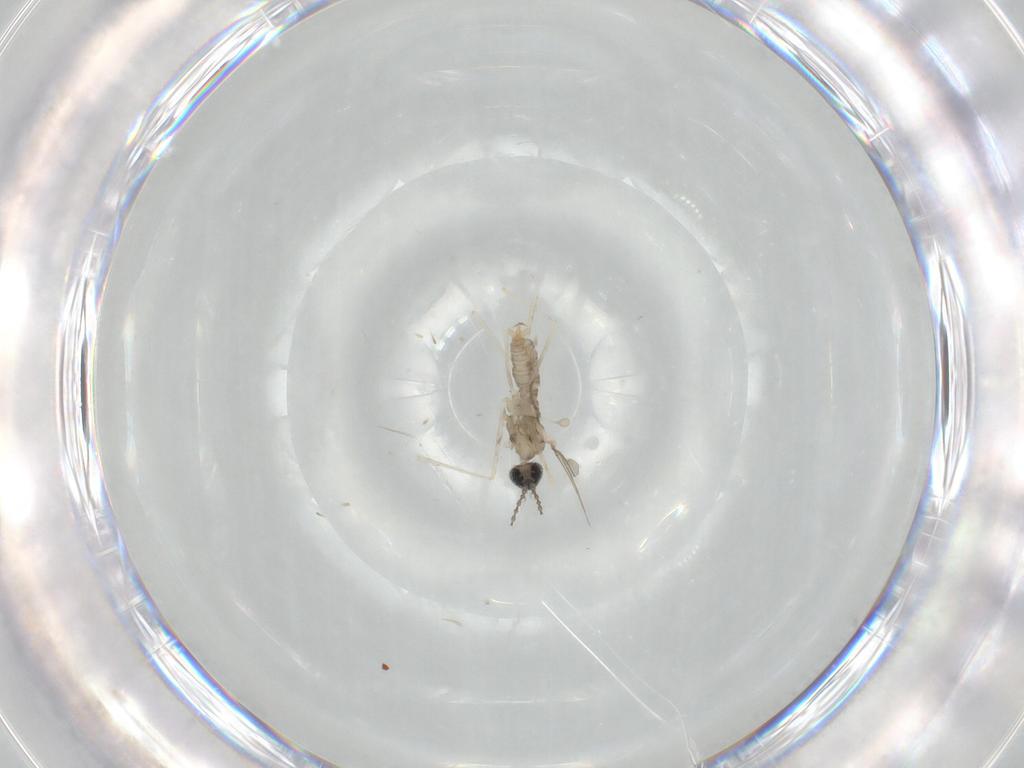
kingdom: Animalia
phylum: Arthropoda
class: Insecta
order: Diptera
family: Cecidomyiidae
